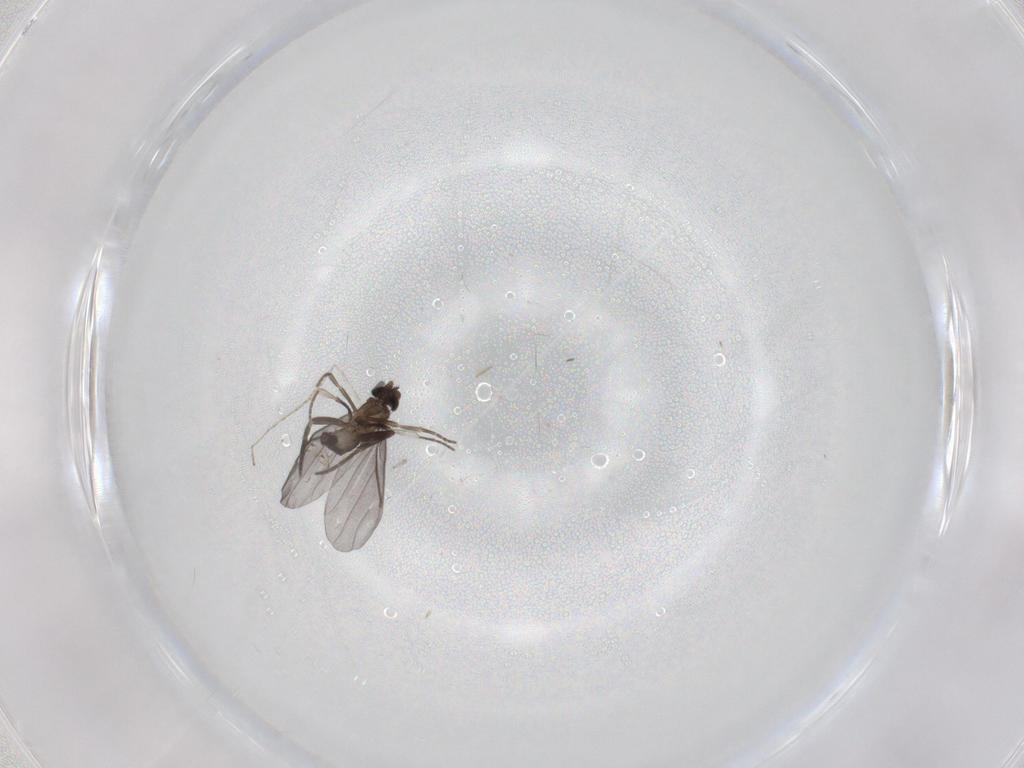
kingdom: Animalia
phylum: Arthropoda
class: Insecta
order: Diptera
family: Phoridae
